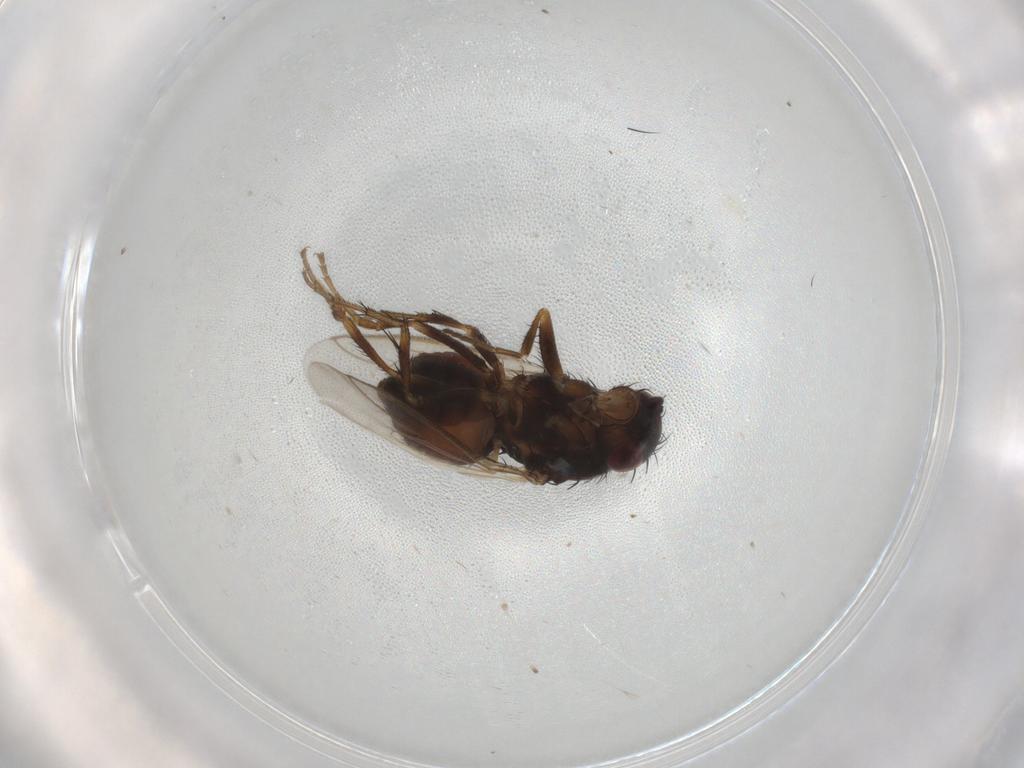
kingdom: Animalia
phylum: Arthropoda
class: Insecta
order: Diptera
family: Sphaeroceridae
